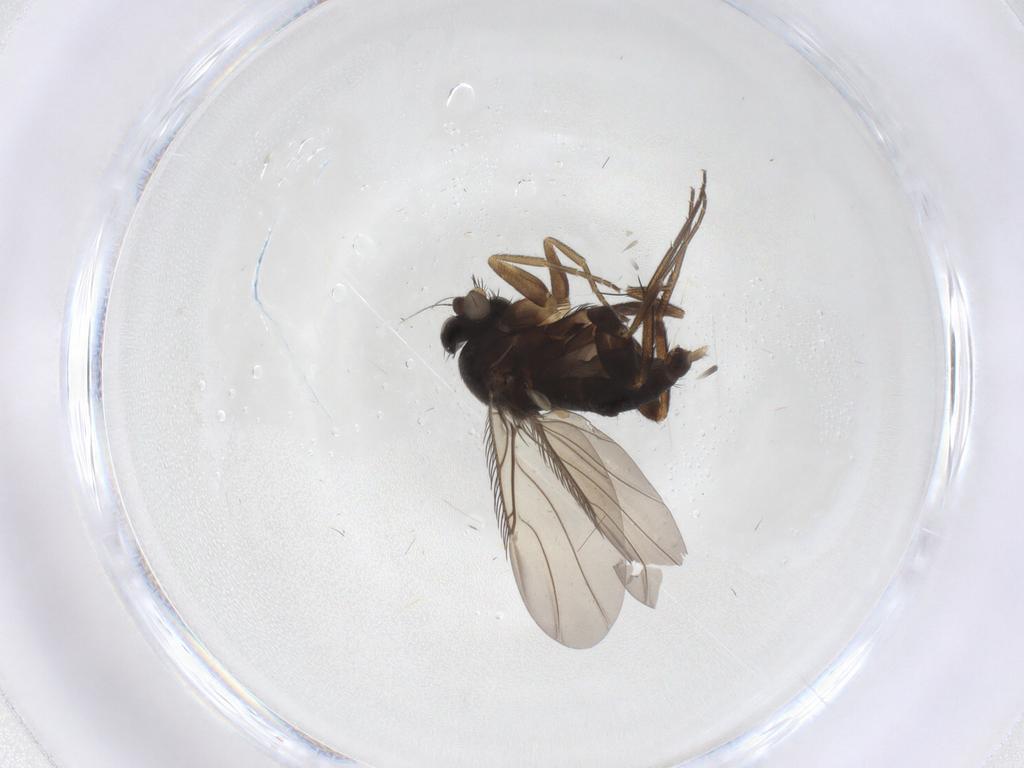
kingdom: Animalia
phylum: Arthropoda
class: Insecta
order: Diptera
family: Phoridae
